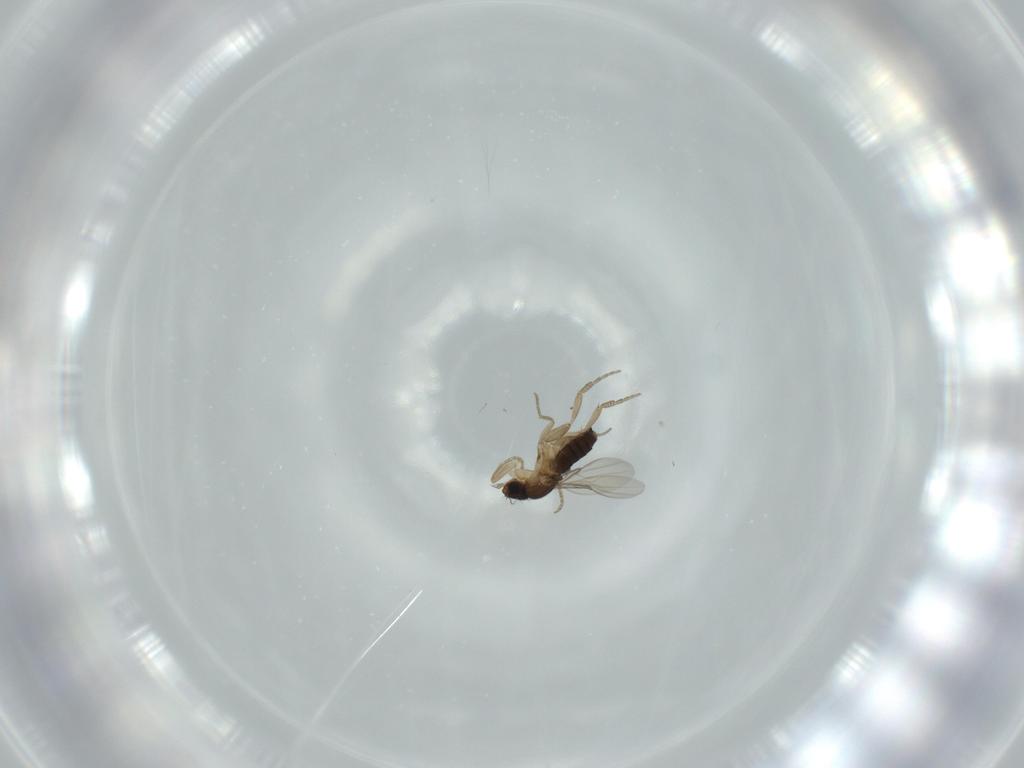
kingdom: Animalia
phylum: Arthropoda
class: Insecta
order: Diptera
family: Phoridae
